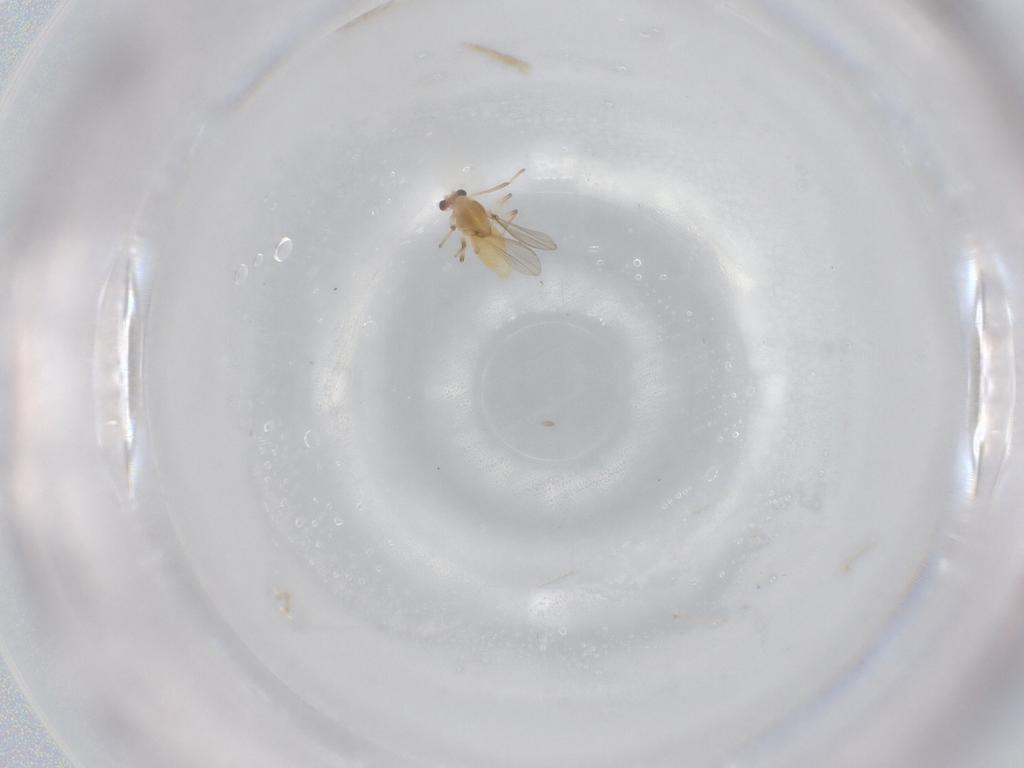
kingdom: Animalia
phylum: Arthropoda
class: Insecta
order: Diptera
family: Chironomidae
